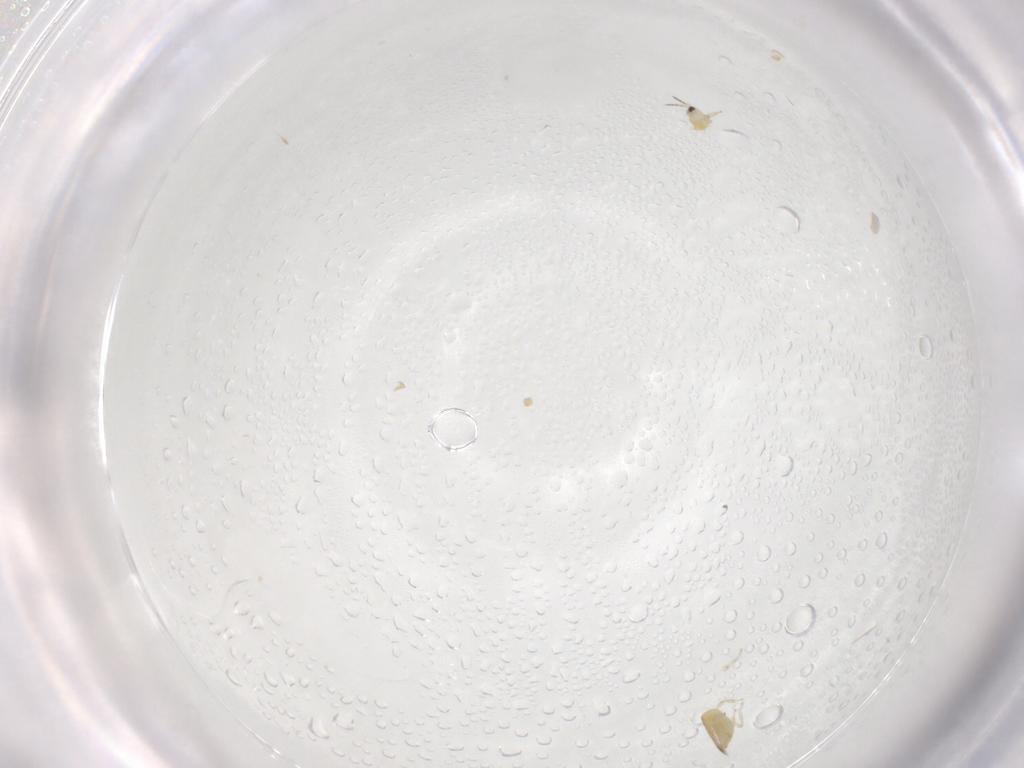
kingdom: Animalia
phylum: Arthropoda
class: Insecta
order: Thysanoptera
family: Thripidae
